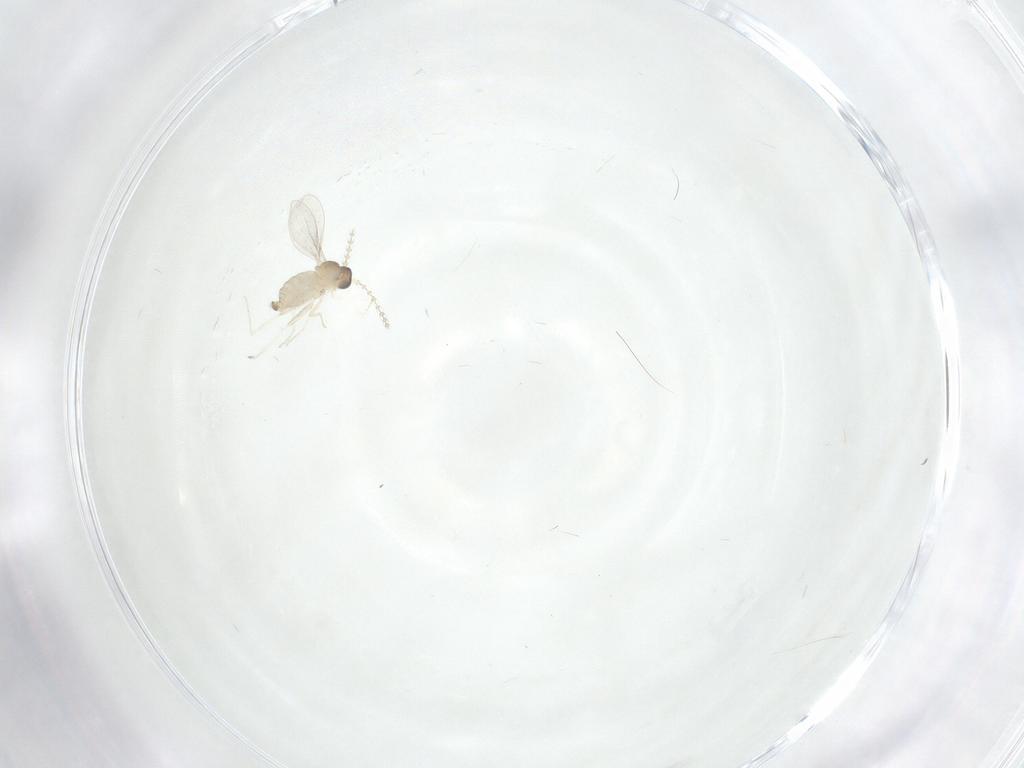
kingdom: Animalia
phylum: Arthropoda
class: Insecta
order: Diptera
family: Cecidomyiidae
